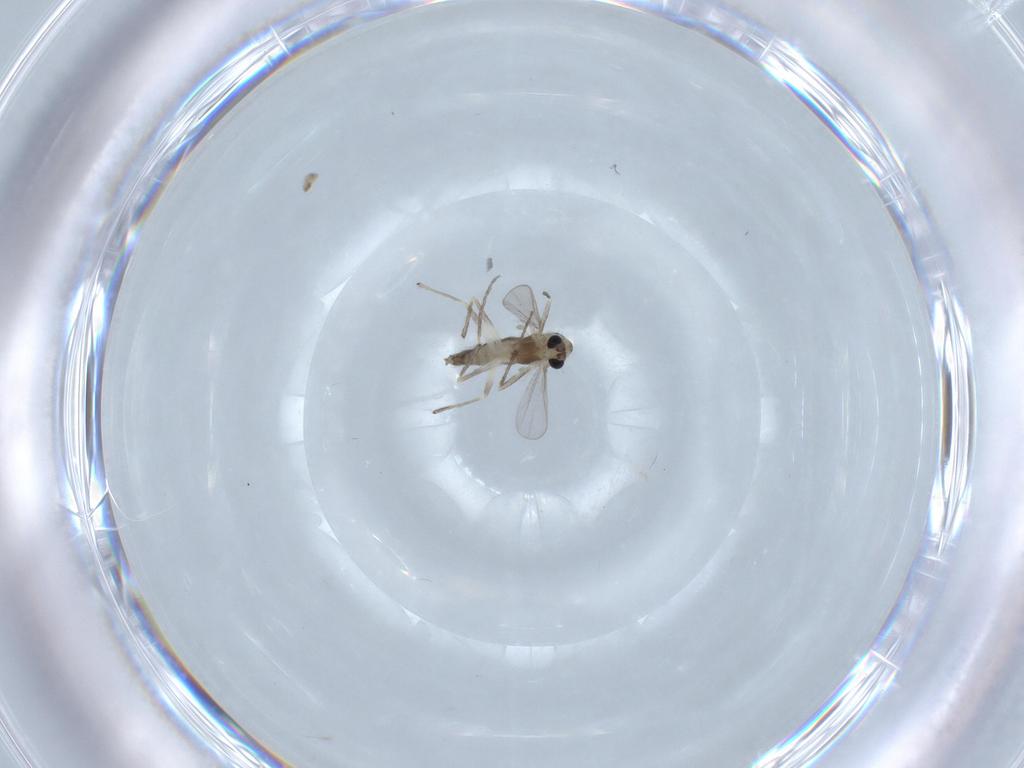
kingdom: Animalia
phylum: Arthropoda
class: Insecta
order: Diptera
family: Chironomidae
